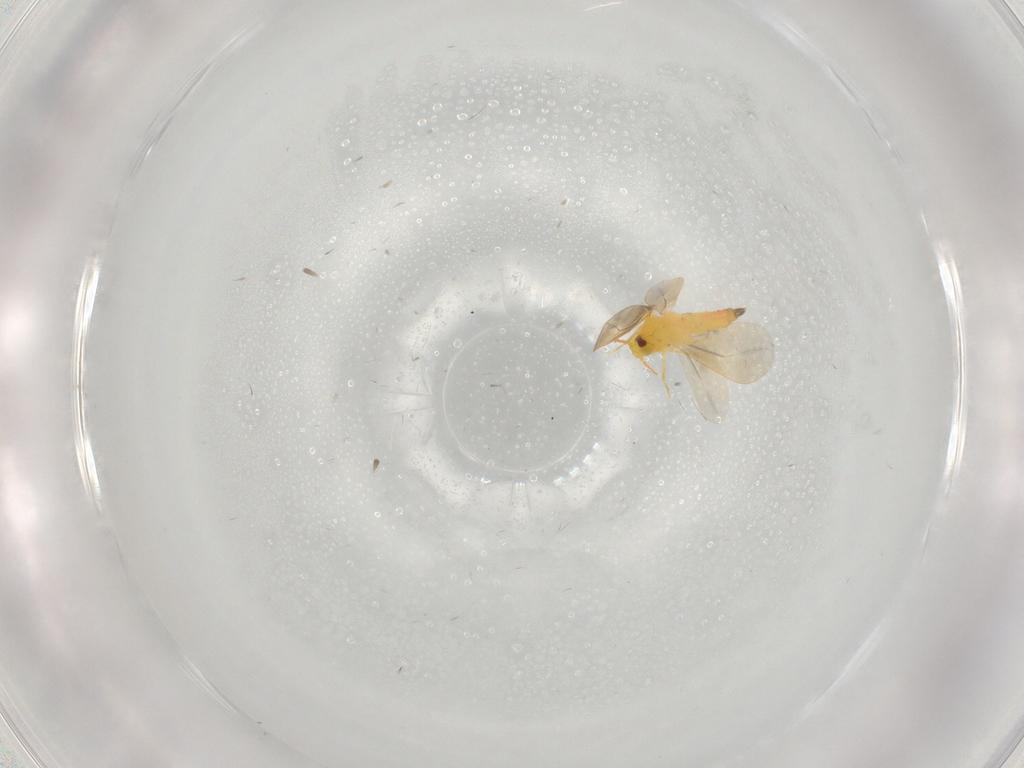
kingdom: Animalia
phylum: Arthropoda
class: Insecta
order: Hemiptera
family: Aleyrodidae
